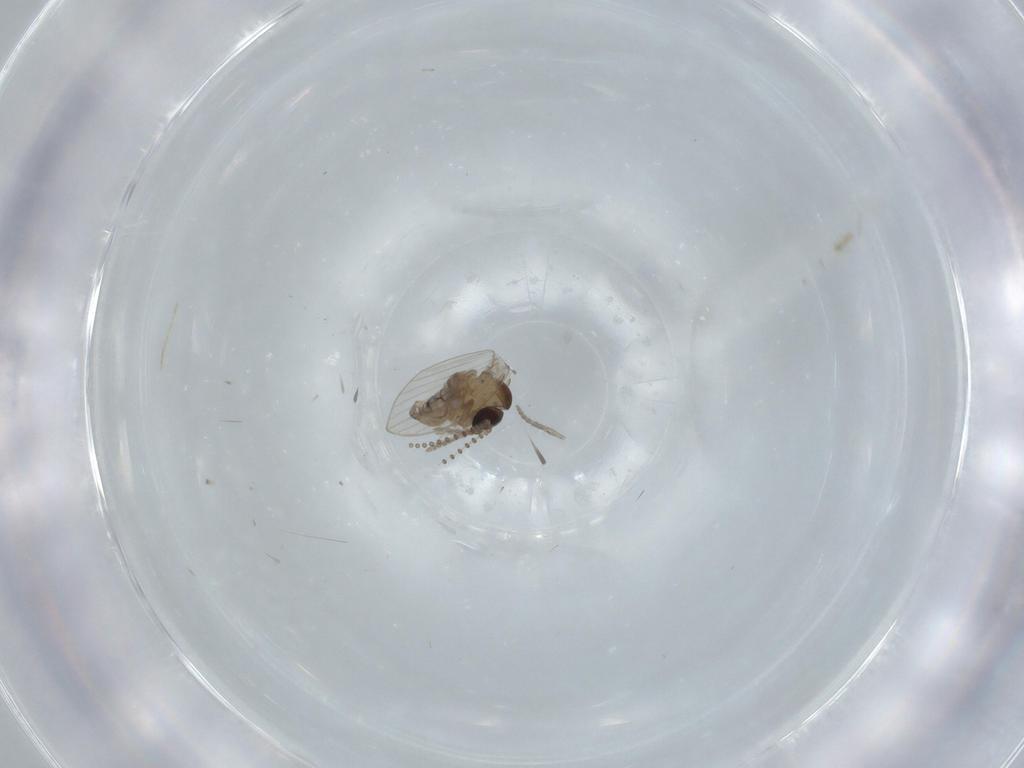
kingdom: Animalia
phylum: Arthropoda
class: Insecta
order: Diptera
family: Psychodidae
